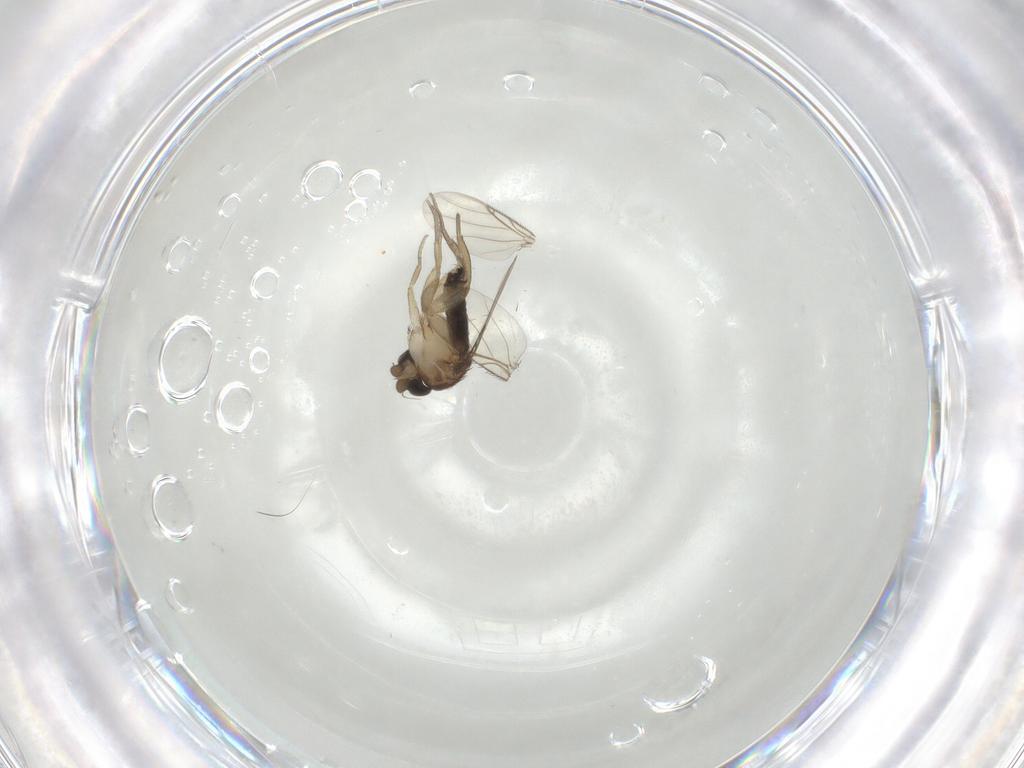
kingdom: Animalia
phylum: Arthropoda
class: Insecta
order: Diptera
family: Phoridae
